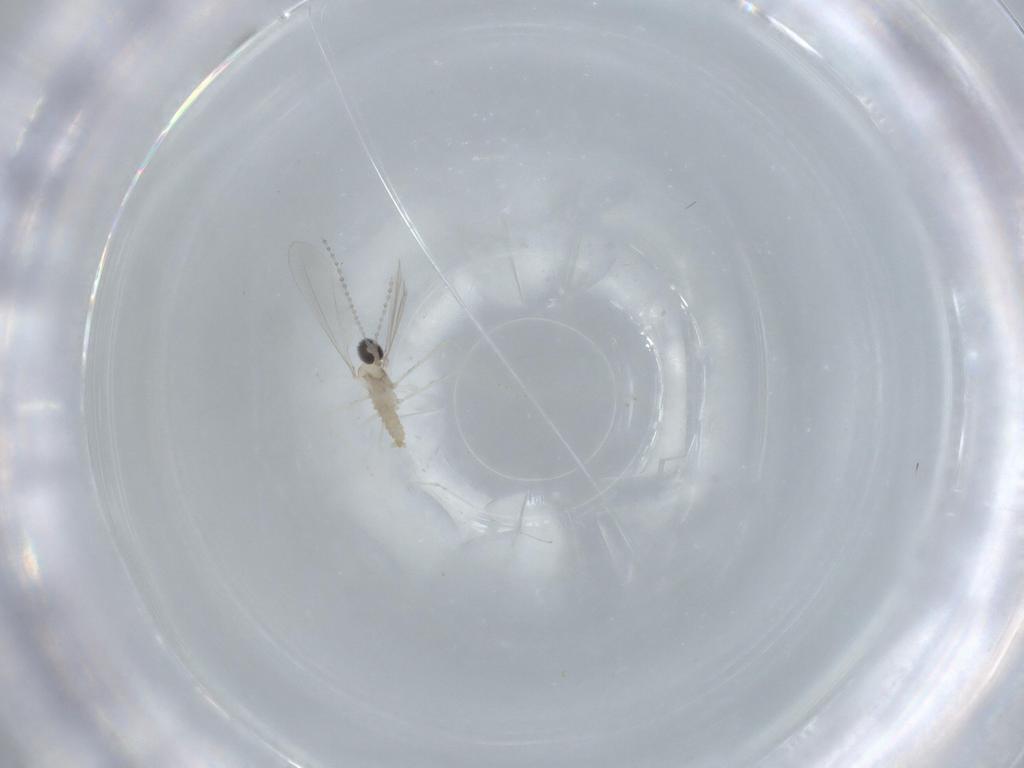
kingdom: Animalia
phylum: Arthropoda
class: Insecta
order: Diptera
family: Cecidomyiidae
